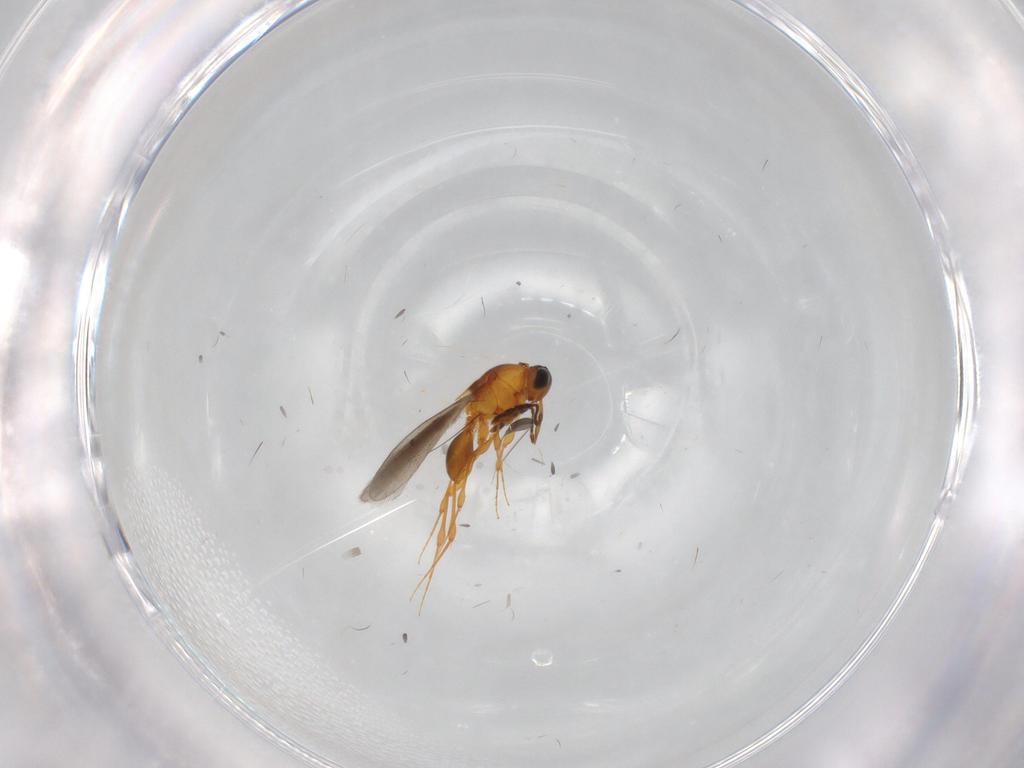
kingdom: Animalia
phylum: Arthropoda
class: Insecta
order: Hymenoptera
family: Platygastridae
